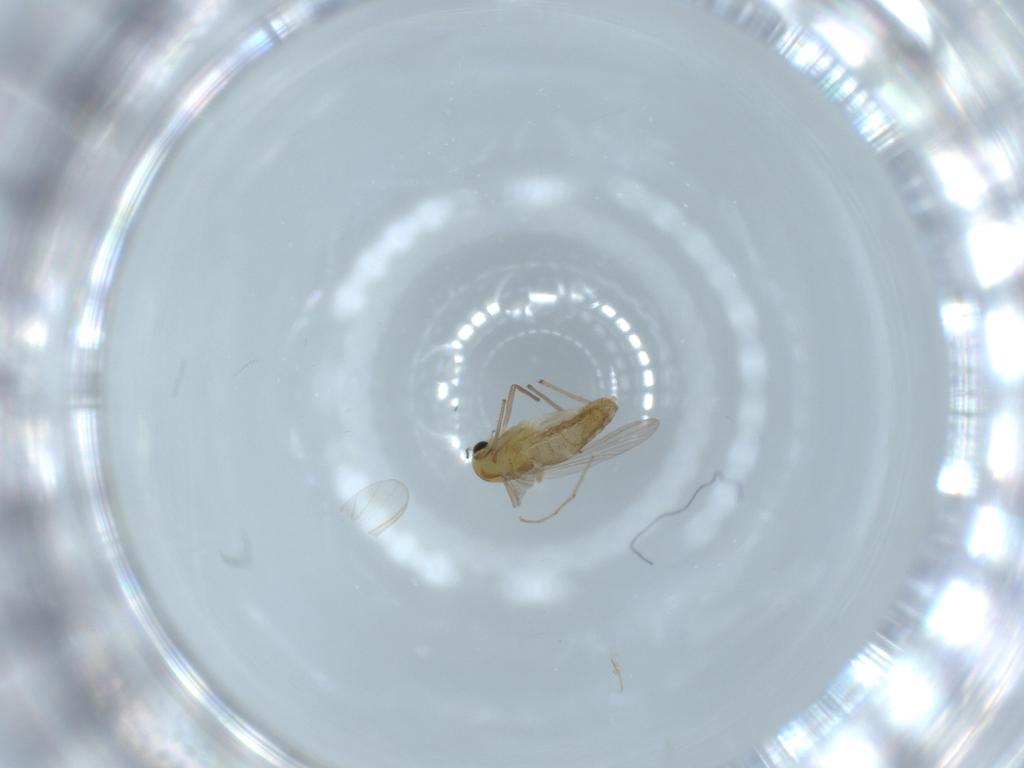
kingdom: Animalia
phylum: Arthropoda
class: Insecta
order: Diptera
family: Chironomidae
